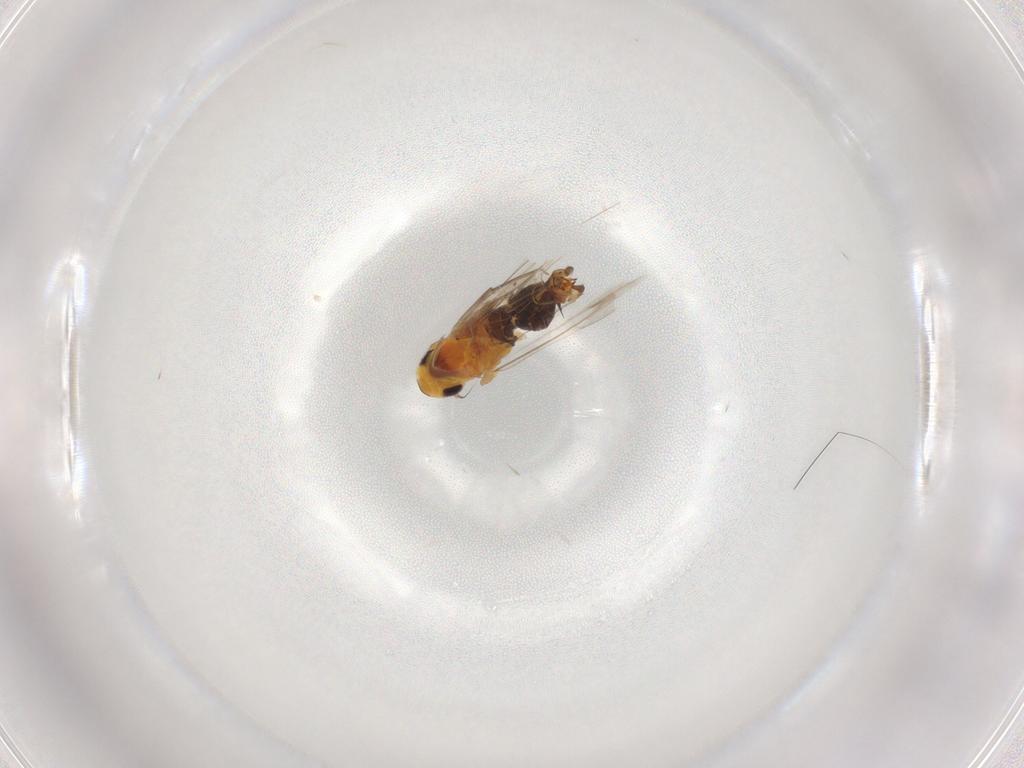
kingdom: Animalia
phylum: Arthropoda
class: Insecta
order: Hemiptera
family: Cicadellidae
